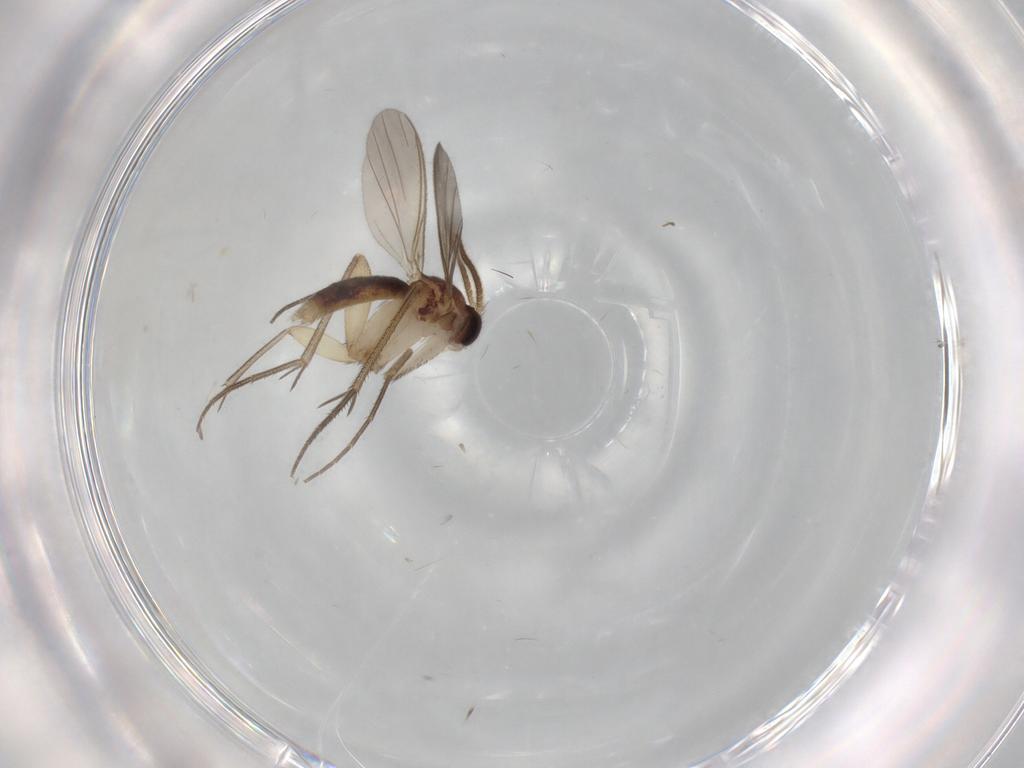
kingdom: Animalia
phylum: Arthropoda
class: Insecta
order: Diptera
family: Mycetophilidae
